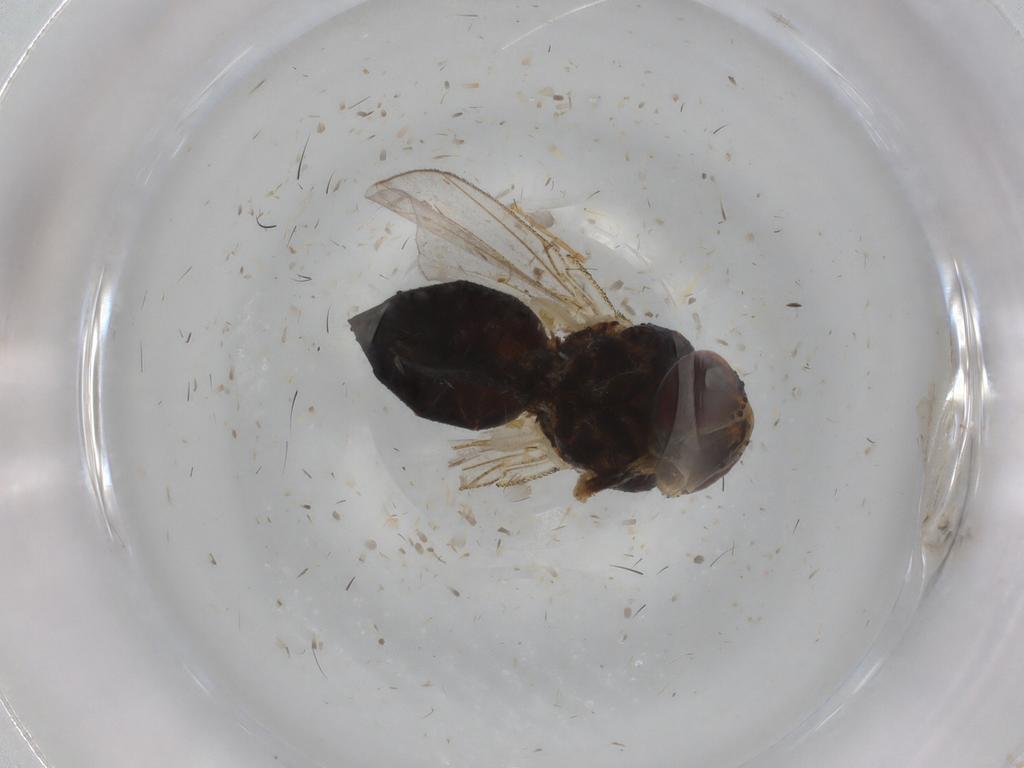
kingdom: Animalia
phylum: Arthropoda
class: Insecta
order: Diptera
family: Tachinidae
